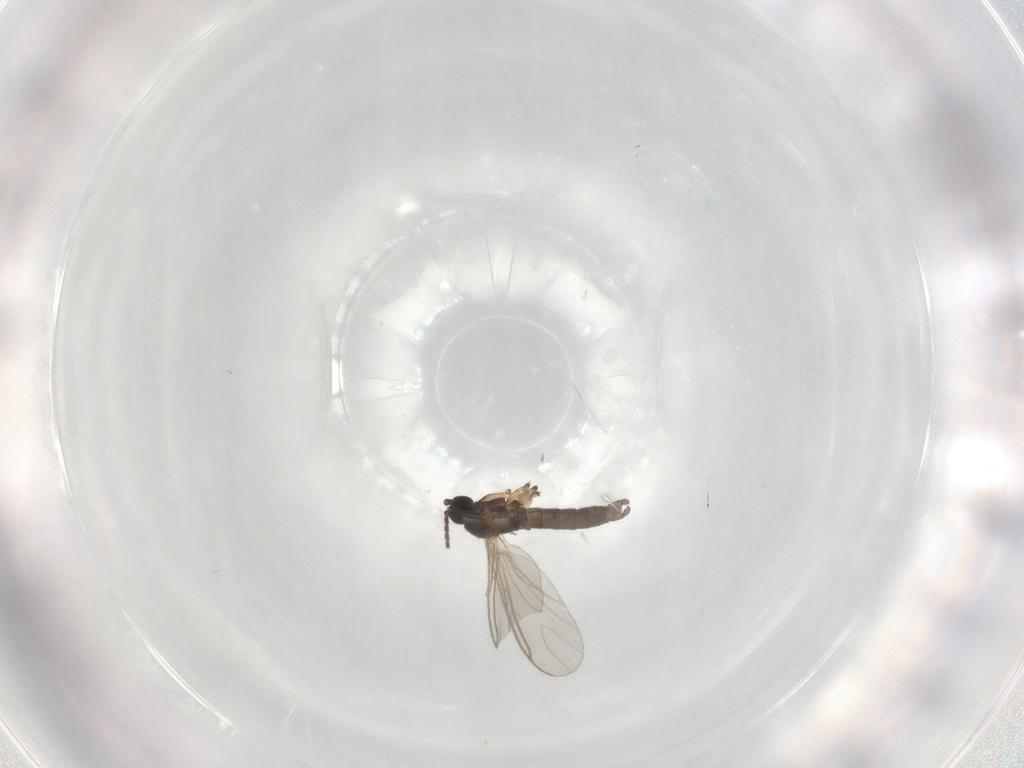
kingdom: Animalia
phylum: Arthropoda
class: Insecta
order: Diptera
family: Sciaridae
